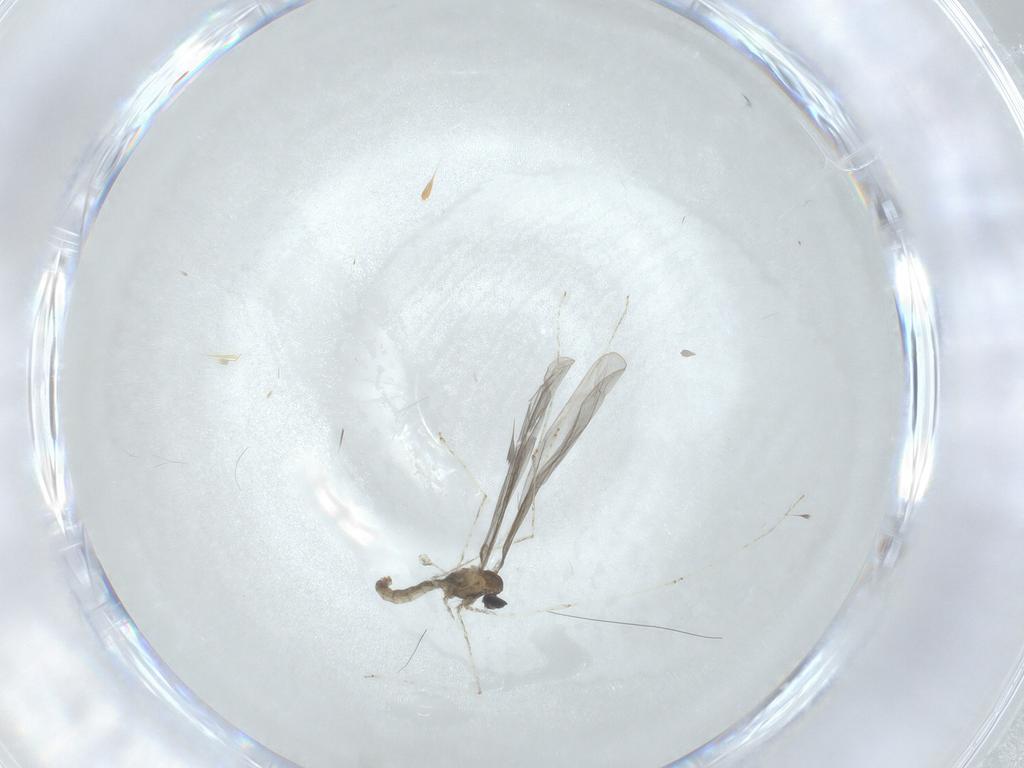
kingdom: Animalia
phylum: Arthropoda
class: Insecta
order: Diptera
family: Cecidomyiidae
